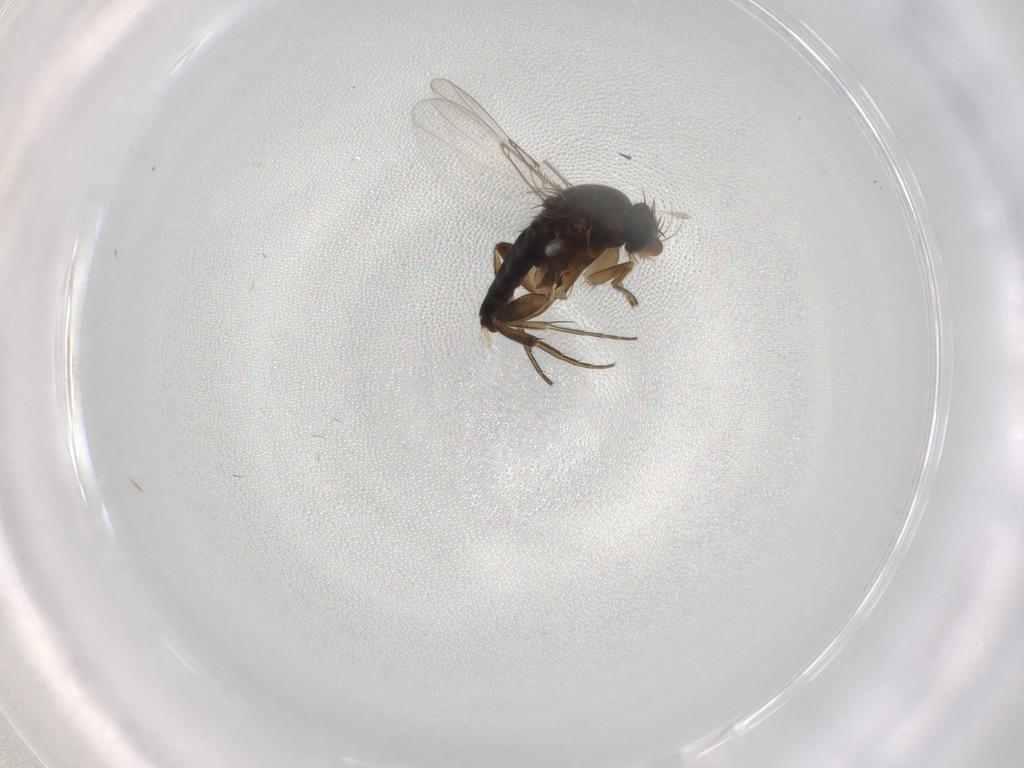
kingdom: Animalia
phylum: Arthropoda
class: Insecta
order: Diptera
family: Phoridae
